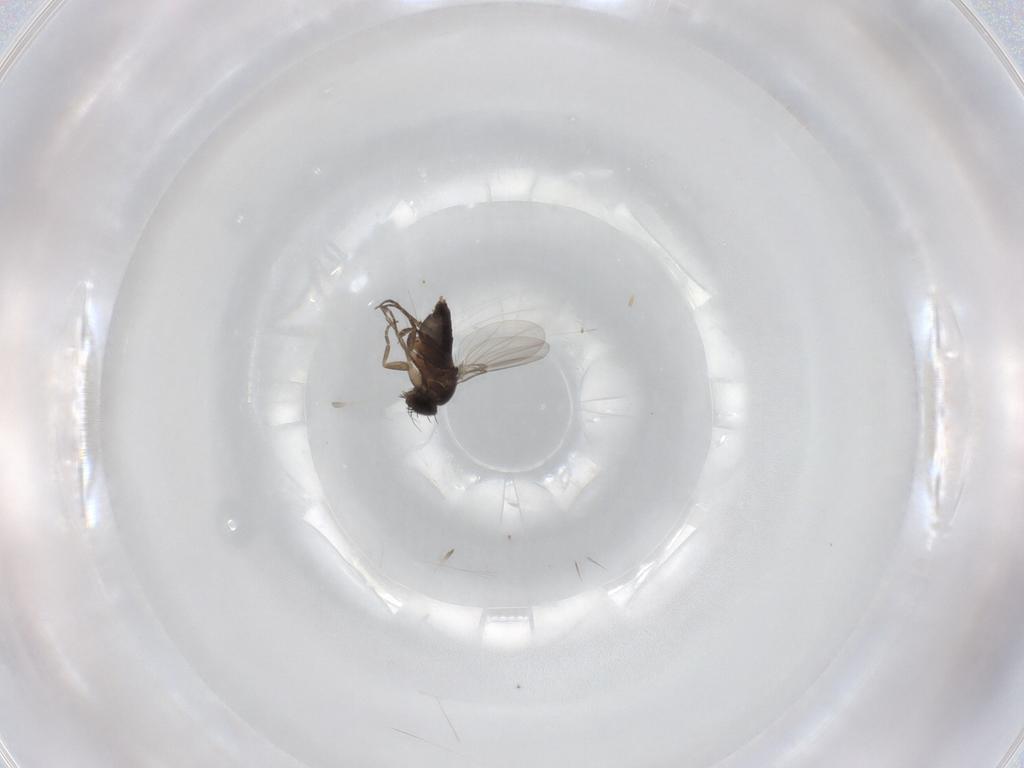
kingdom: Animalia
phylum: Arthropoda
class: Insecta
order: Diptera
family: Phoridae
